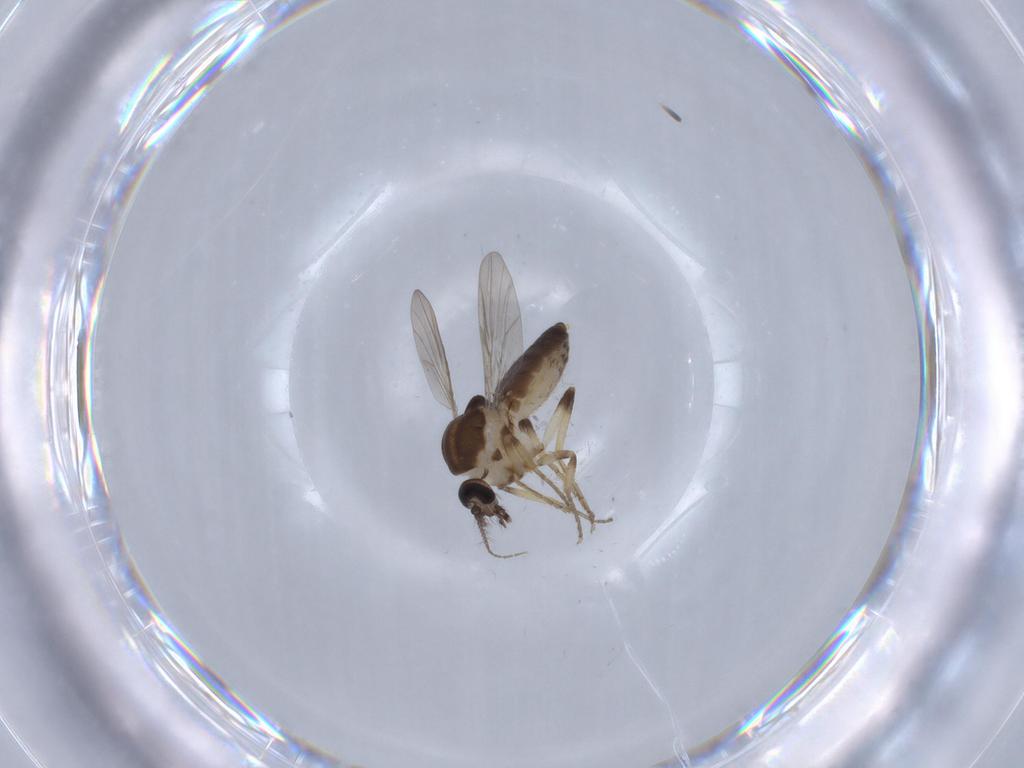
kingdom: Animalia
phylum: Arthropoda
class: Insecta
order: Diptera
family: Ceratopogonidae
